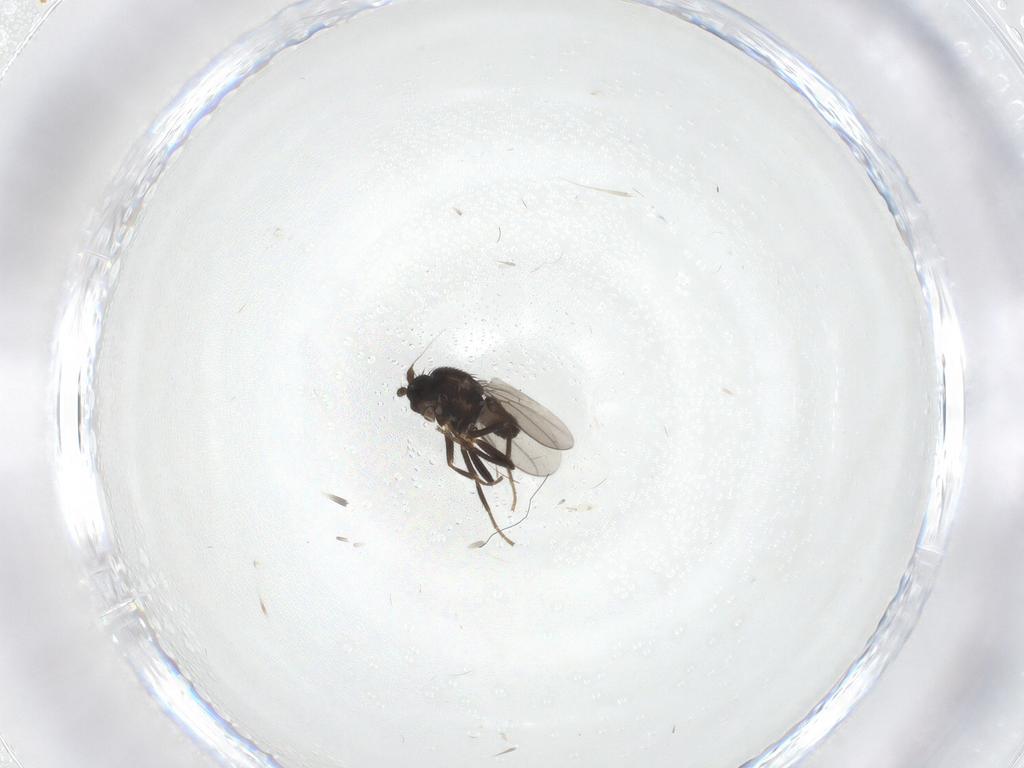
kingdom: Animalia
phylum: Arthropoda
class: Insecta
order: Diptera
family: Sphaeroceridae
